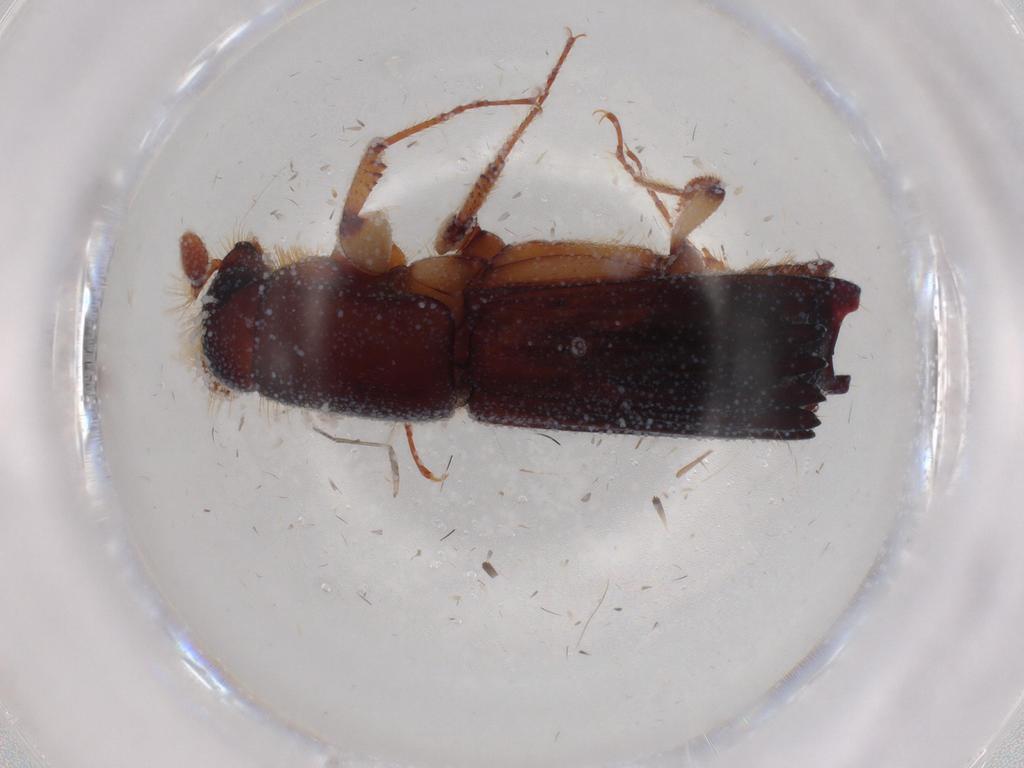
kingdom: Animalia
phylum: Arthropoda
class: Insecta
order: Coleoptera
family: Curculionidae
